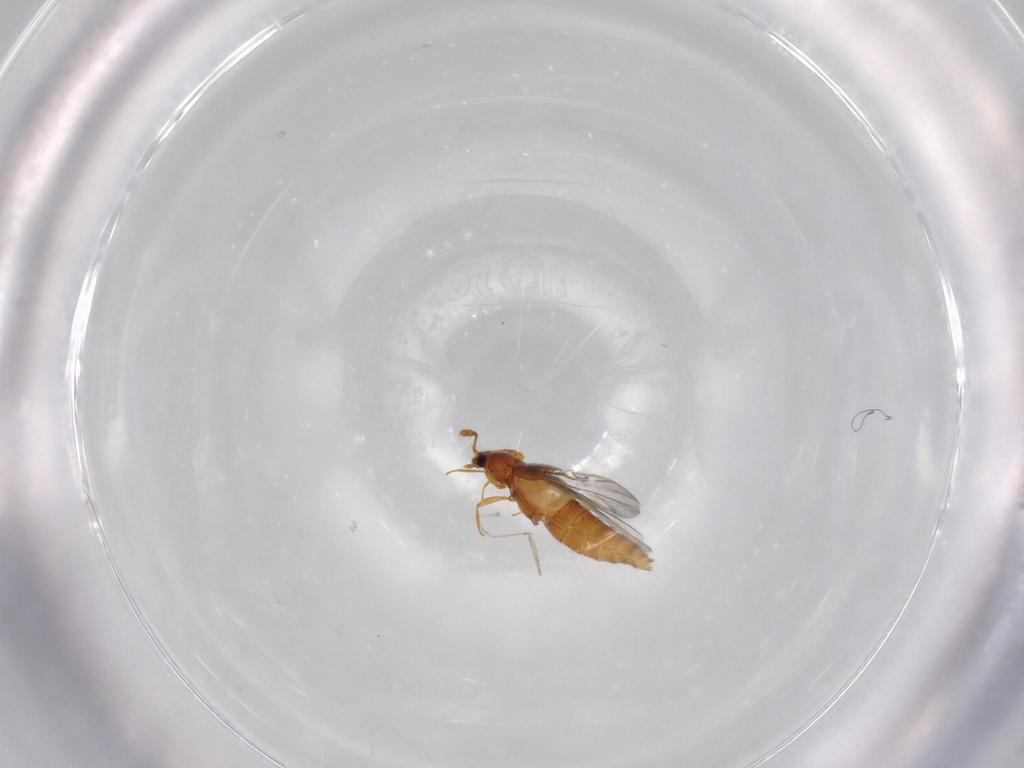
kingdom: Animalia
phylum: Arthropoda
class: Insecta
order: Coleoptera
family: Staphylinidae
